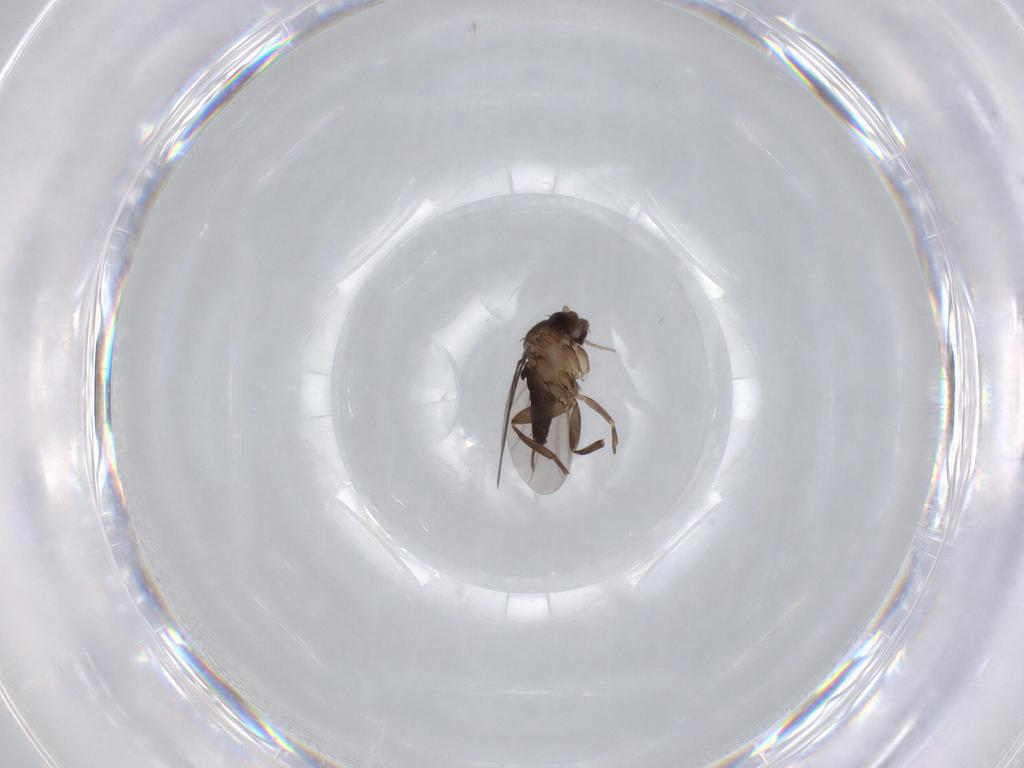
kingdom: Animalia
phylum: Arthropoda
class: Insecta
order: Diptera
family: Phoridae
